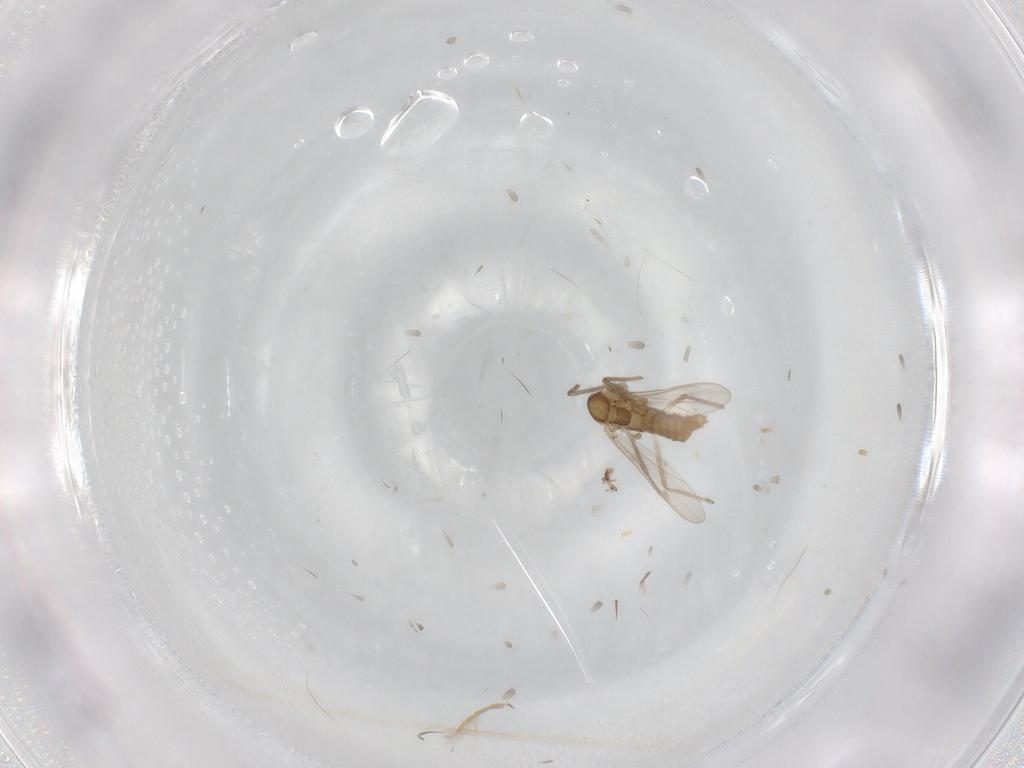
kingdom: Animalia
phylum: Arthropoda
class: Insecta
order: Diptera
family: Chironomidae
